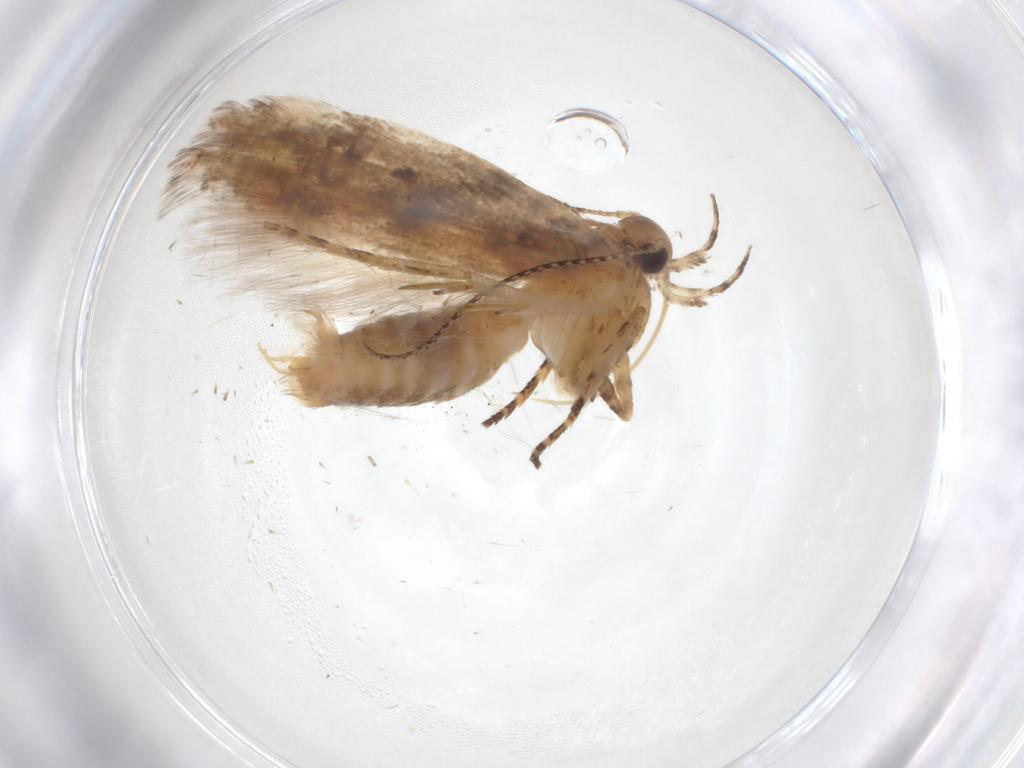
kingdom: Animalia
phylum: Arthropoda
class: Insecta
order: Lepidoptera
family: Gelechiidae
